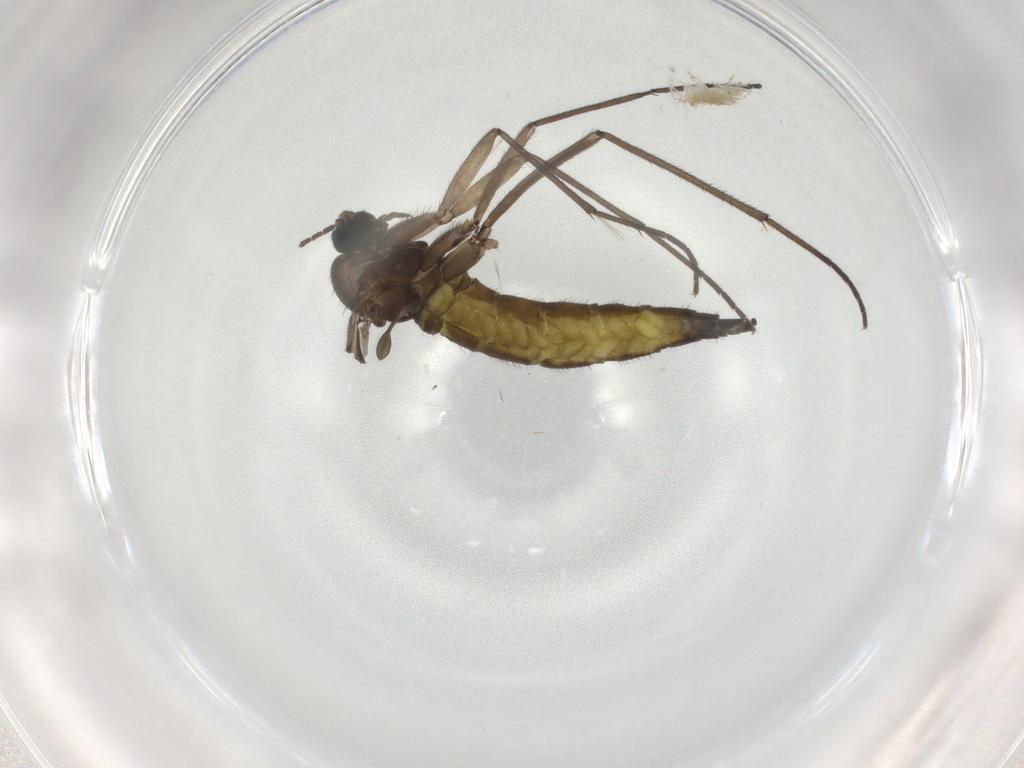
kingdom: Animalia
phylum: Arthropoda
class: Insecta
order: Diptera
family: Sciaridae
